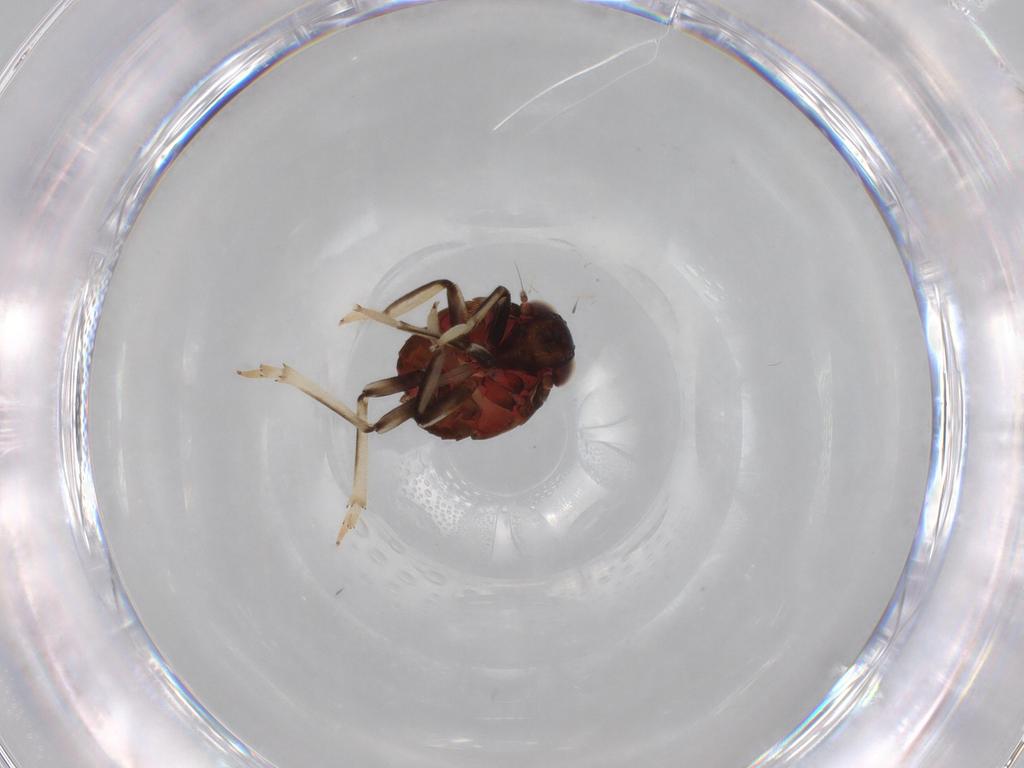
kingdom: Animalia
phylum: Arthropoda
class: Insecta
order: Hemiptera
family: Issidae
